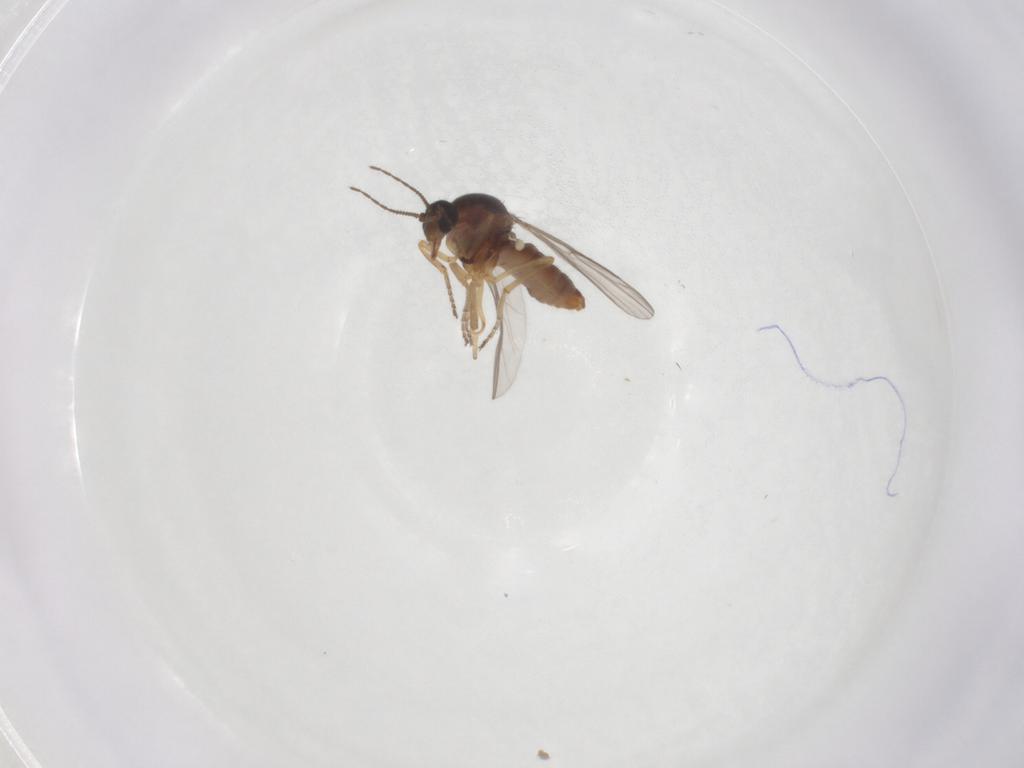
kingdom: Animalia
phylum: Arthropoda
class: Insecta
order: Diptera
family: Ceratopogonidae
